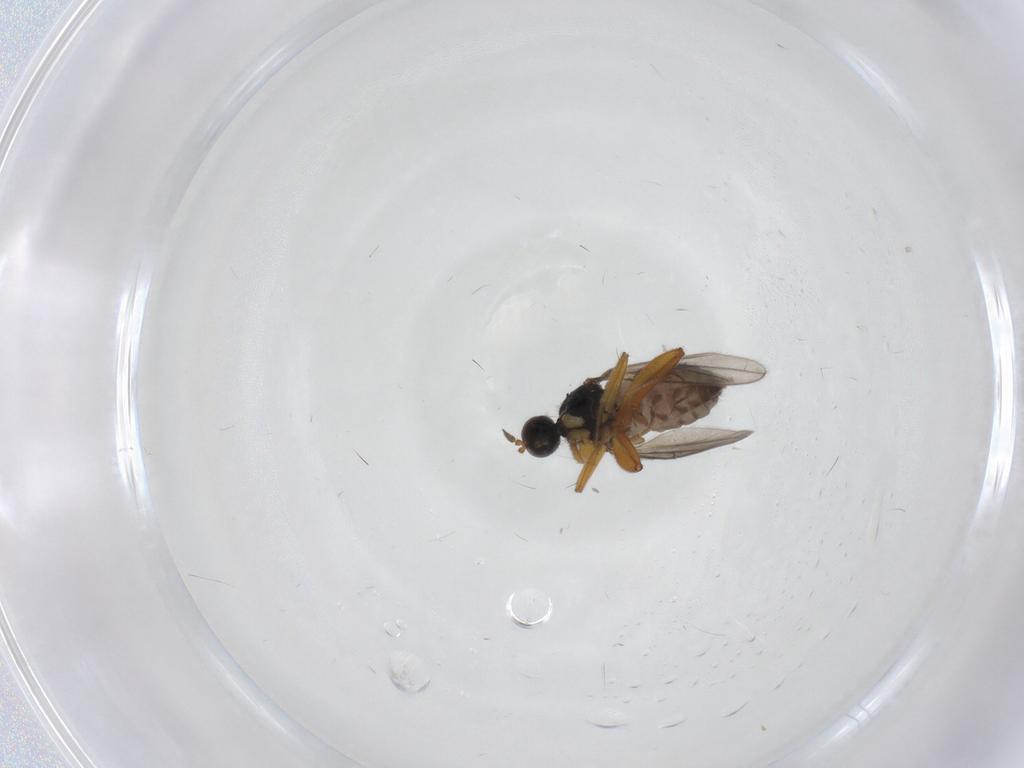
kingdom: Animalia
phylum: Arthropoda
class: Insecta
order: Diptera
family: Hybotidae
